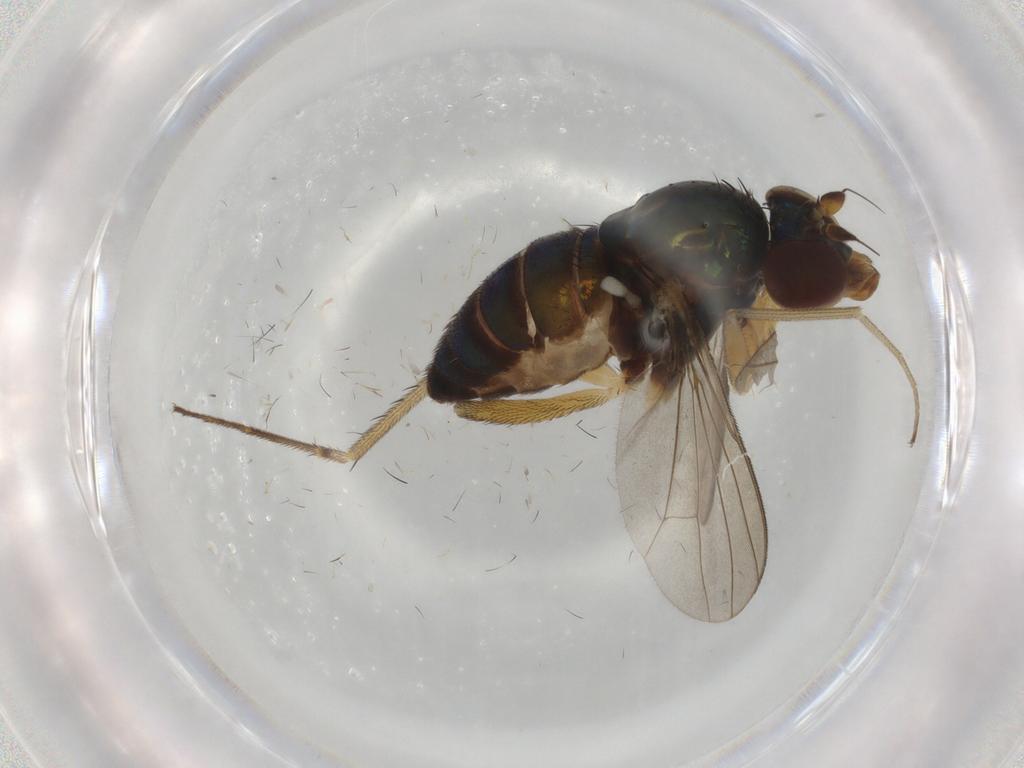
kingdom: Animalia
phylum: Arthropoda
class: Insecta
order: Diptera
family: Dolichopodidae
